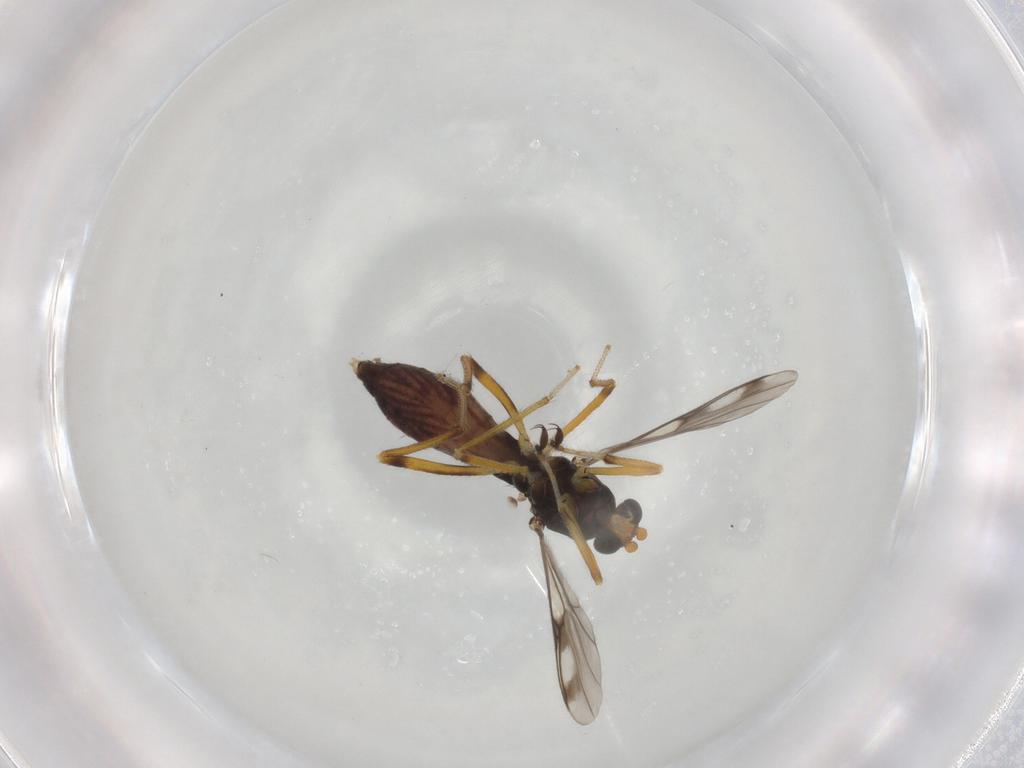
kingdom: Animalia
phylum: Arthropoda
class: Insecta
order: Diptera
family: Ceratopogonidae
